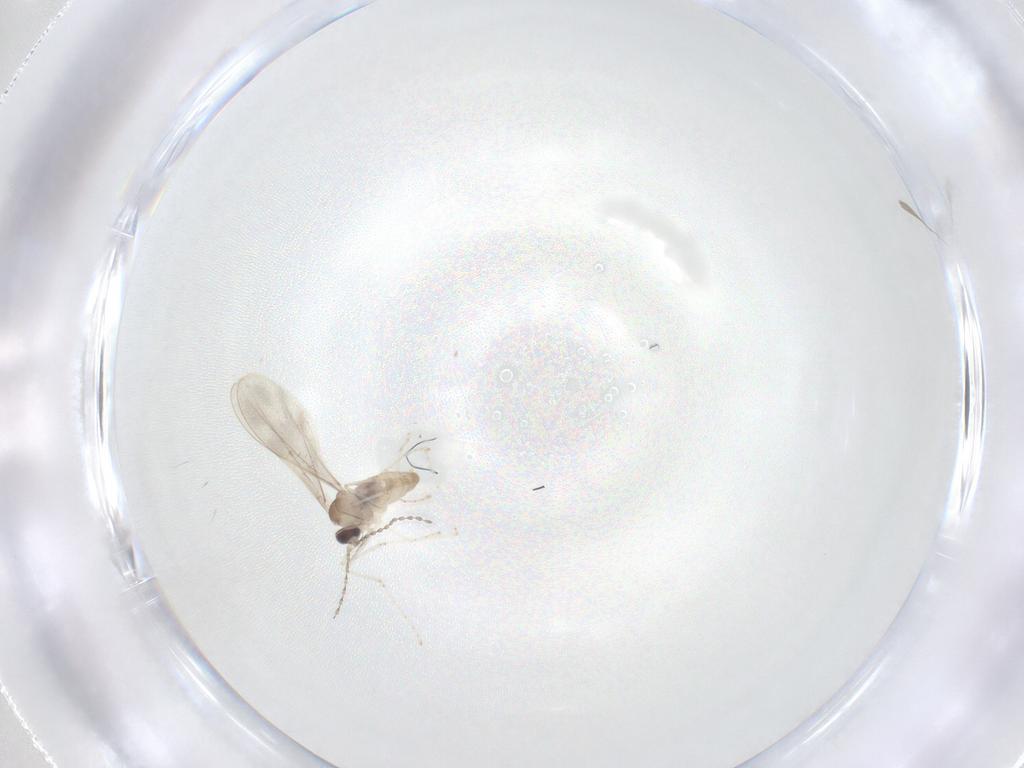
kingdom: Animalia
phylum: Arthropoda
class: Insecta
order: Diptera
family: Cecidomyiidae
